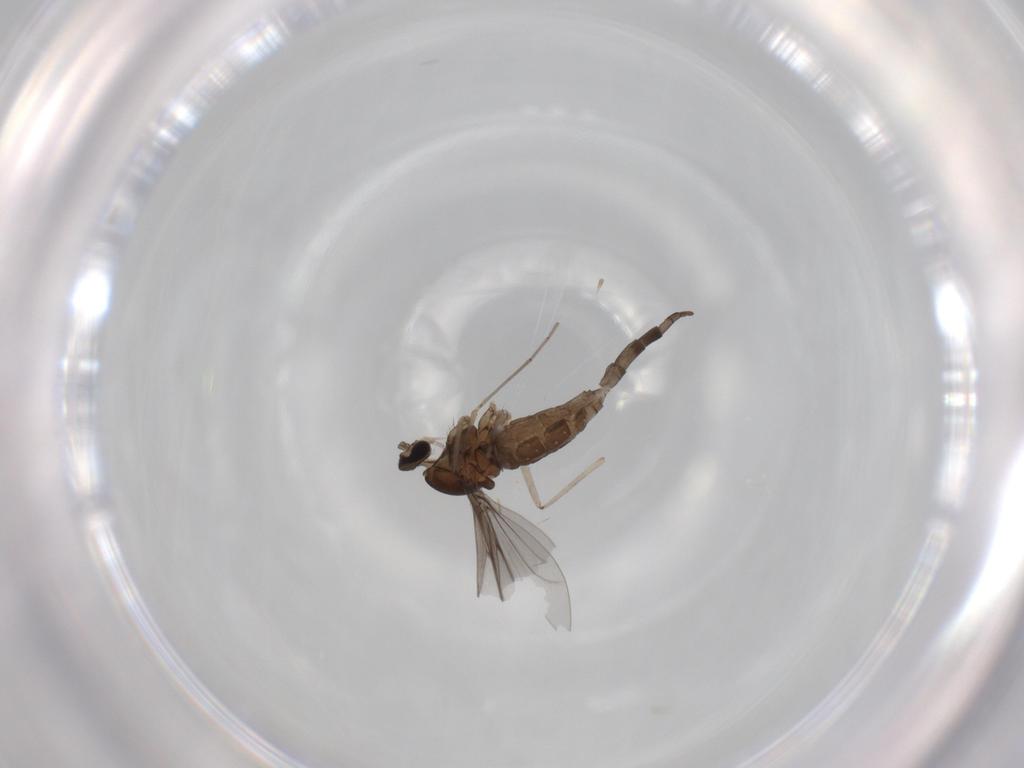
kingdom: Animalia
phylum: Arthropoda
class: Insecta
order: Diptera
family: Cecidomyiidae
